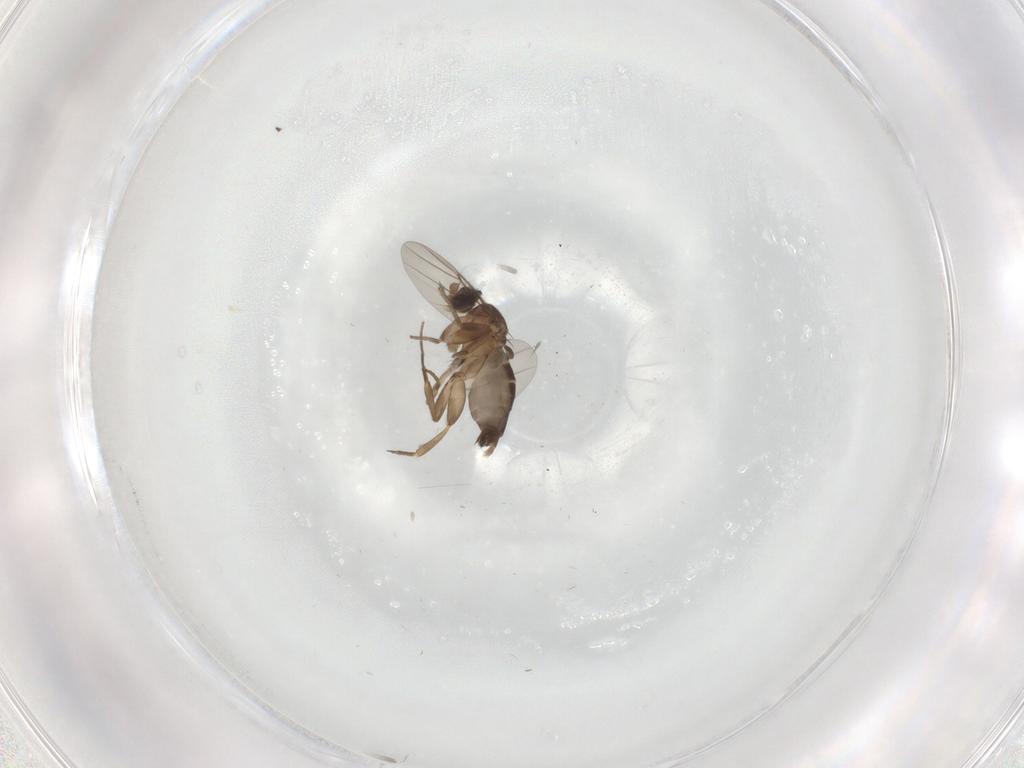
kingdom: Animalia
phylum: Arthropoda
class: Insecta
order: Diptera
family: Phoridae
